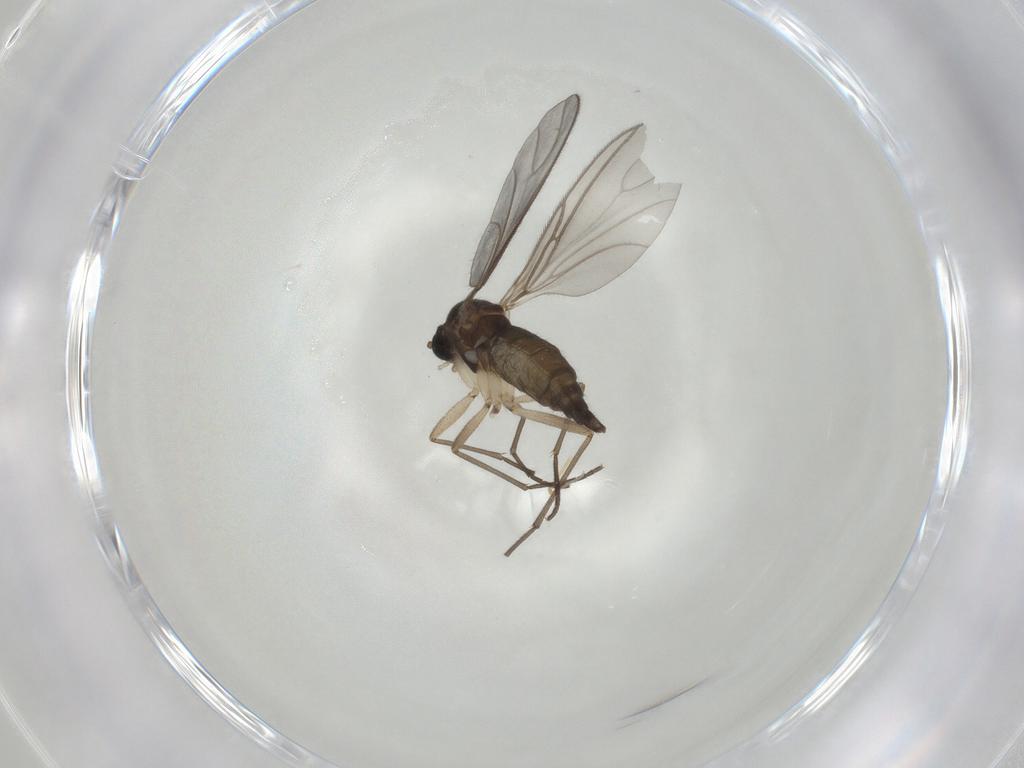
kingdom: Animalia
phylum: Arthropoda
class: Insecta
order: Diptera
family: Sciaridae
